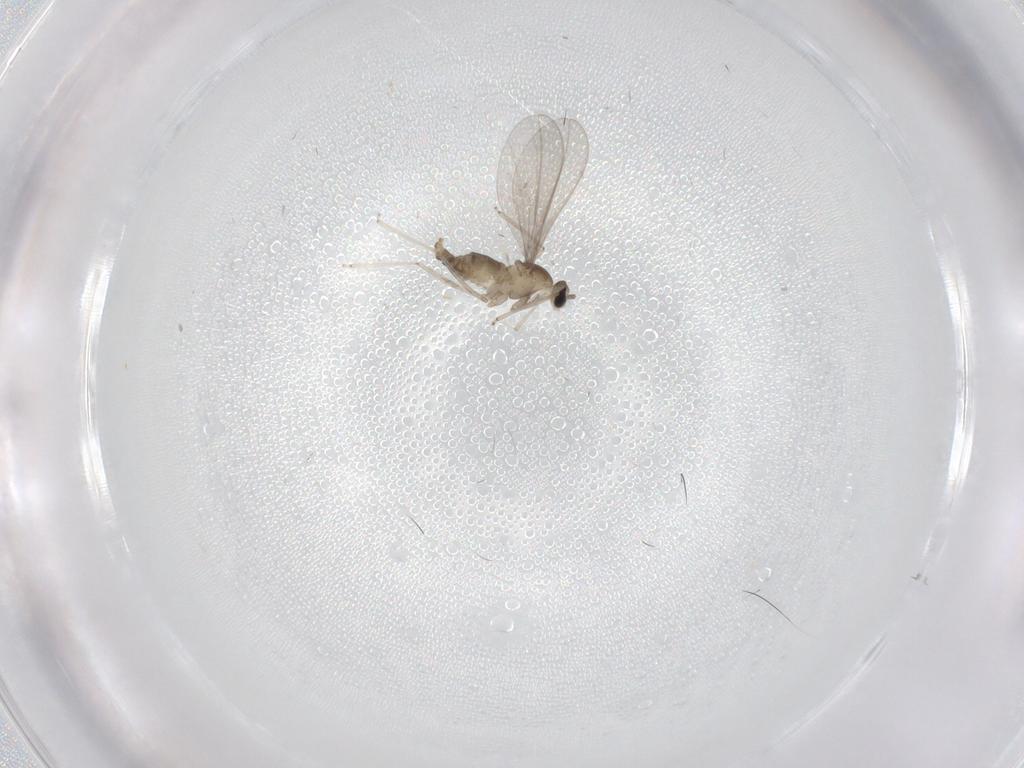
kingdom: Animalia
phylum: Arthropoda
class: Insecta
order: Diptera
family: Cecidomyiidae
